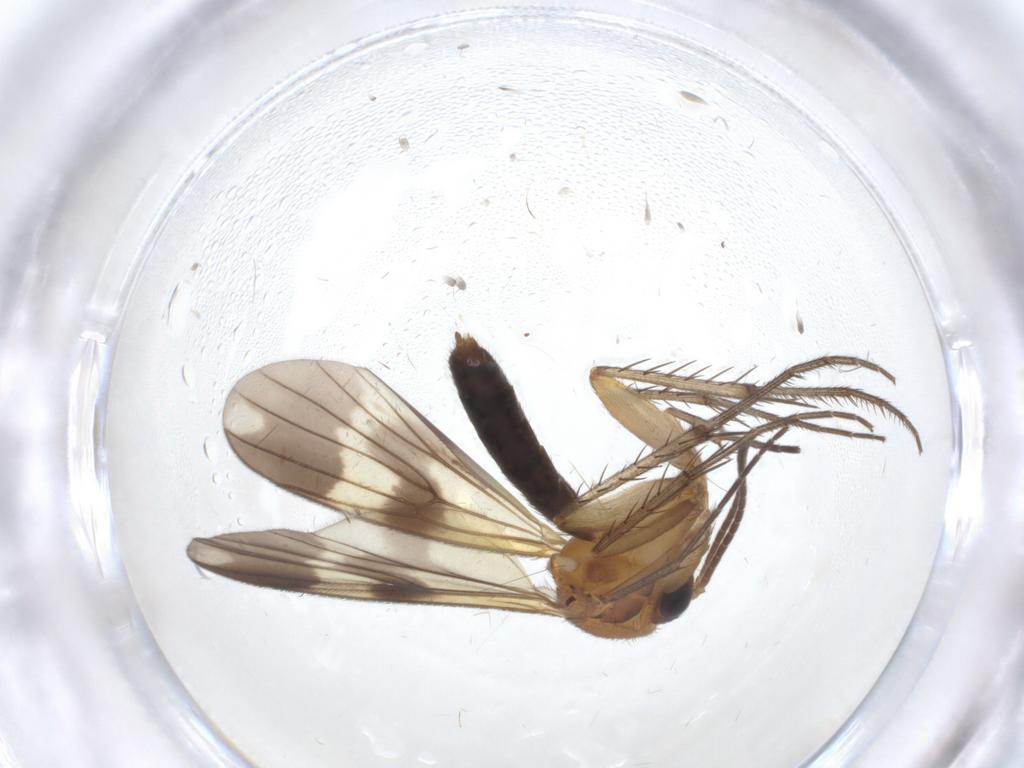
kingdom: Animalia
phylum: Arthropoda
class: Insecta
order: Diptera
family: Mycetophilidae
